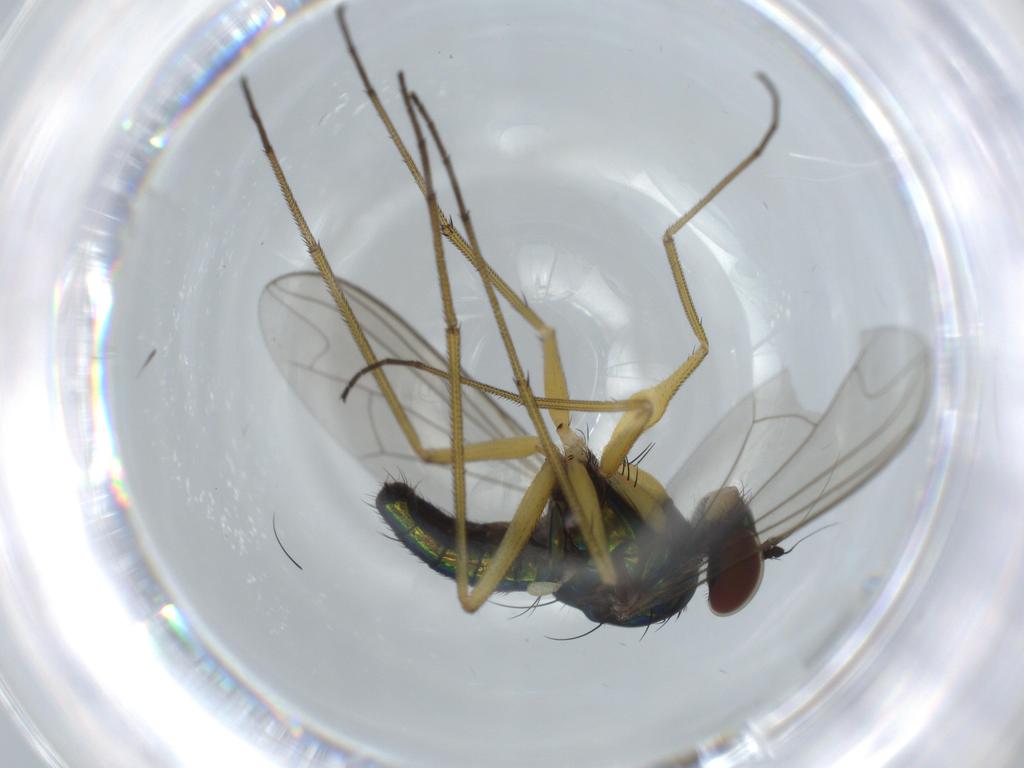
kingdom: Animalia
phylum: Arthropoda
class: Insecta
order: Diptera
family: Dolichopodidae
